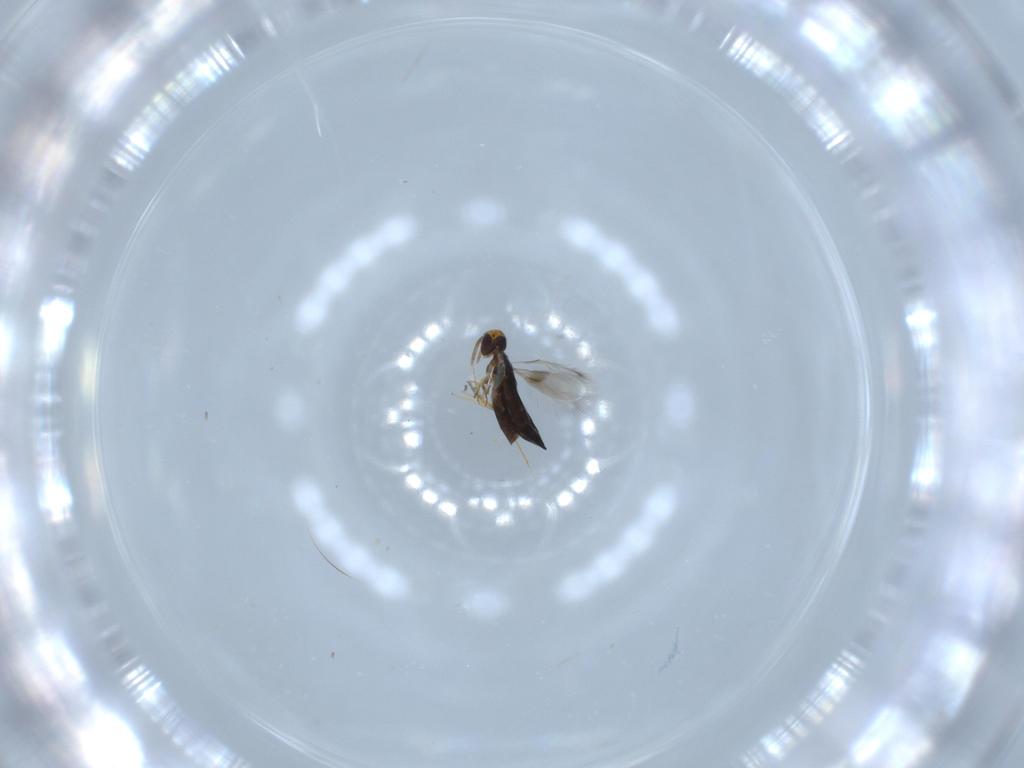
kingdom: Animalia
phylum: Arthropoda
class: Insecta
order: Hymenoptera
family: Signiphoridae
